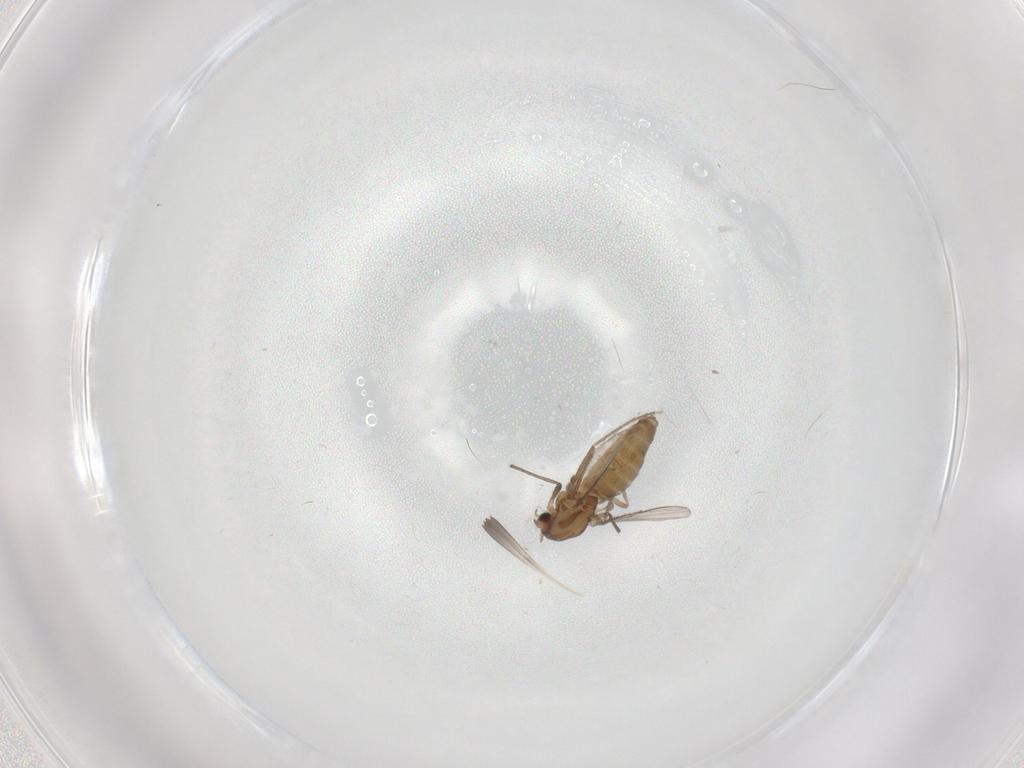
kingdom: Animalia
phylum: Arthropoda
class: Insecta
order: Diptera
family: Chironomidae
